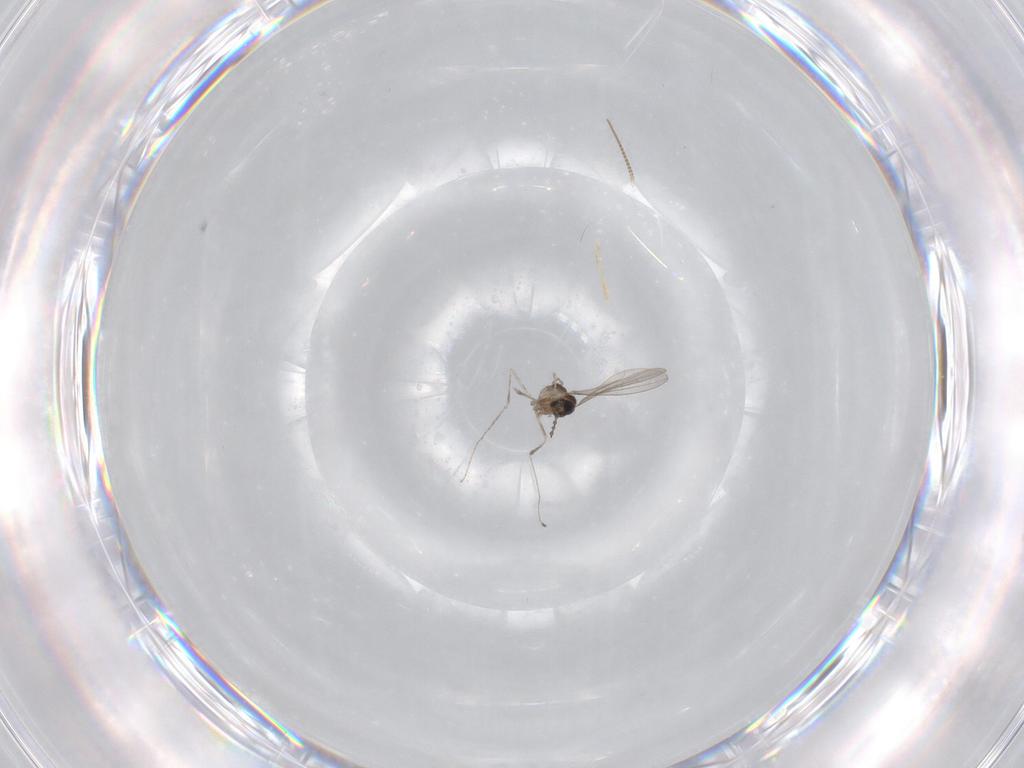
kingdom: Animalia
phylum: Arthropoda
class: Insecta
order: Diptera
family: Cecidomyiidae
